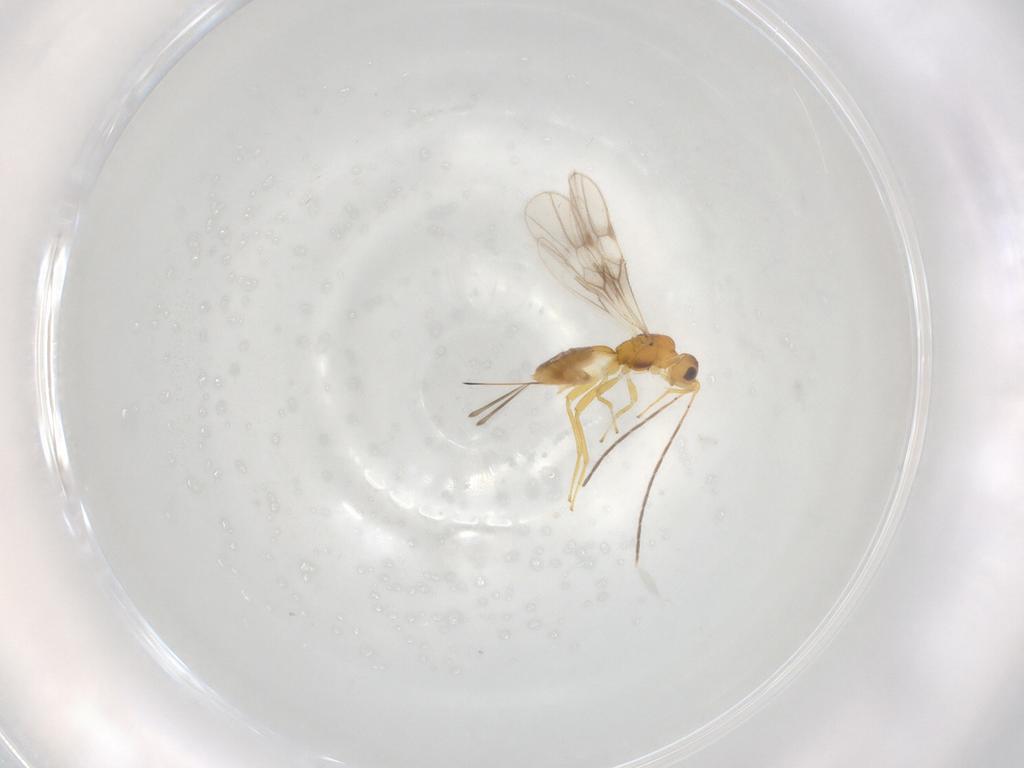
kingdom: Animalia
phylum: Arthropoda
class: Insecta
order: Hymenoptera
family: Braconidae
